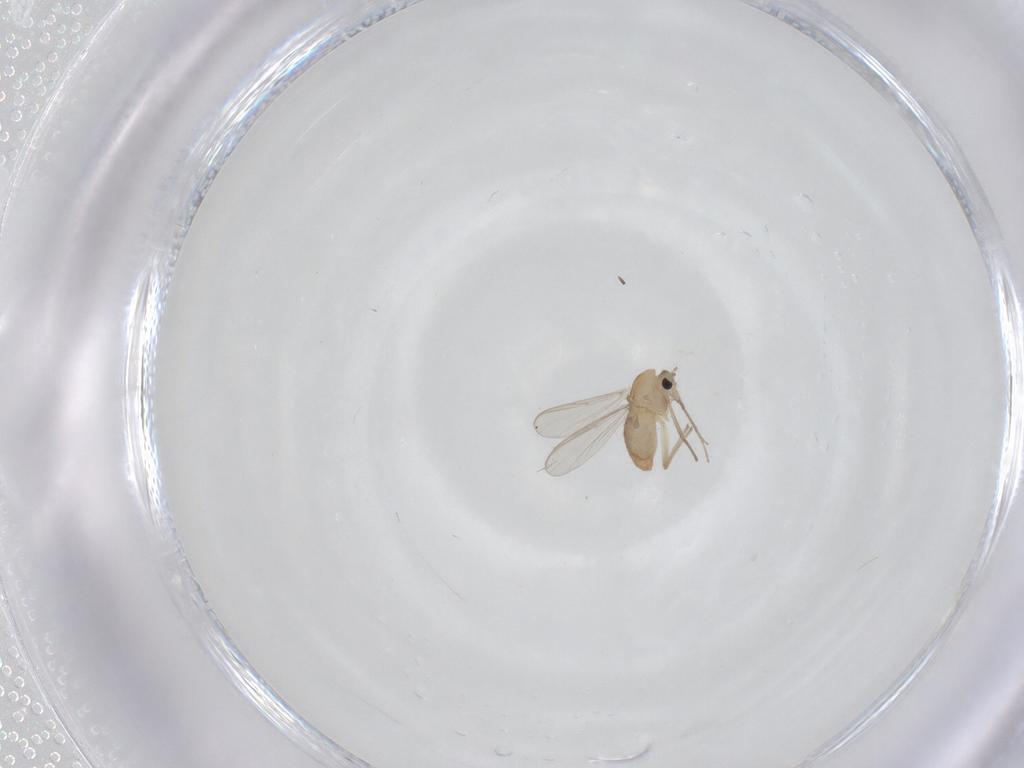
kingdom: Animalia
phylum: Arthropoda
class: Insecta
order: Diptera
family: Chironomidae
